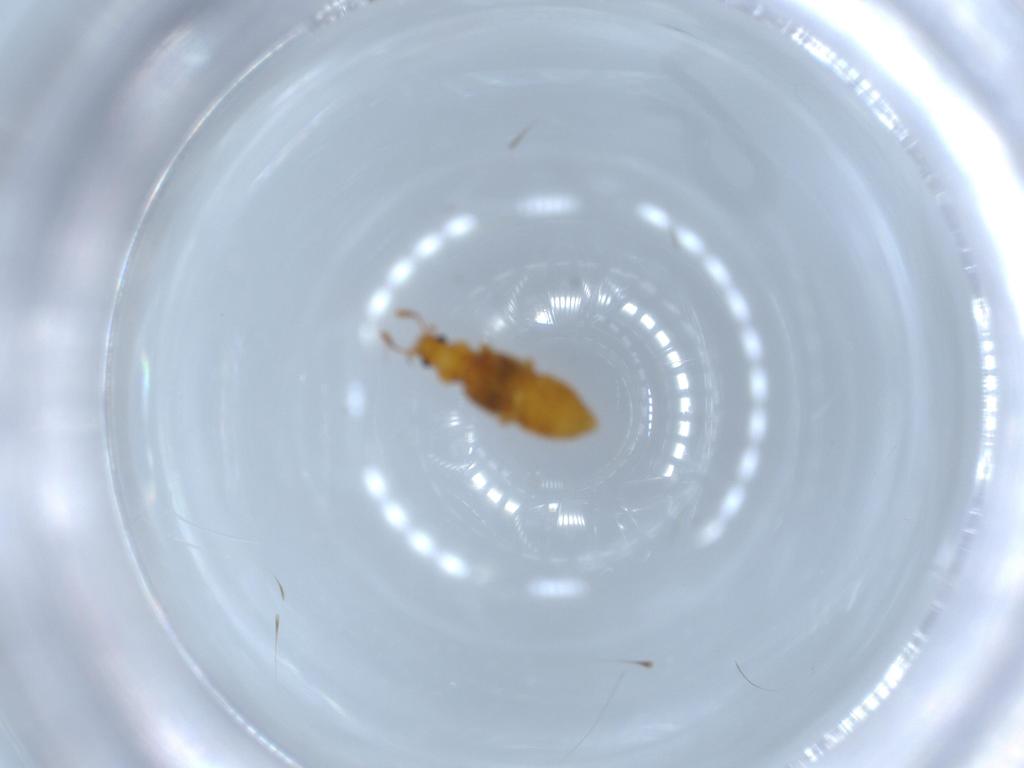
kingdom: Animalia
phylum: Arthropoda
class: Insecta
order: Coleoptera
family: Staphylinidae
